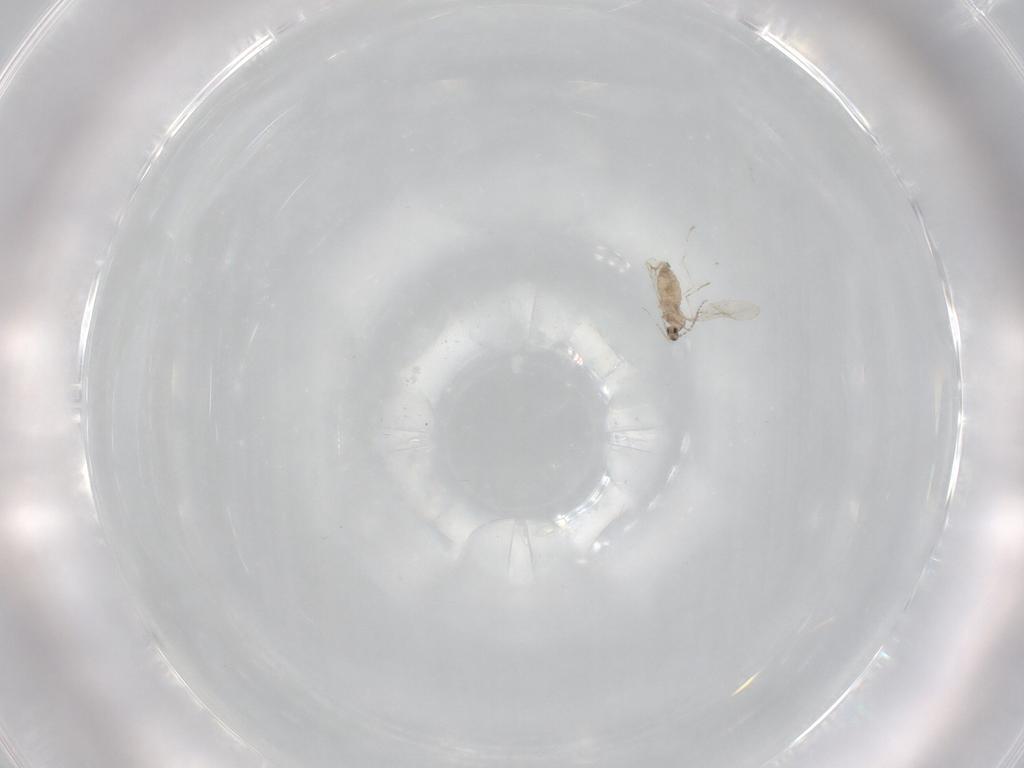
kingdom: Animalia
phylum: Arthropoda
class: Insecta
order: Diptera
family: Cecidomyiidae
